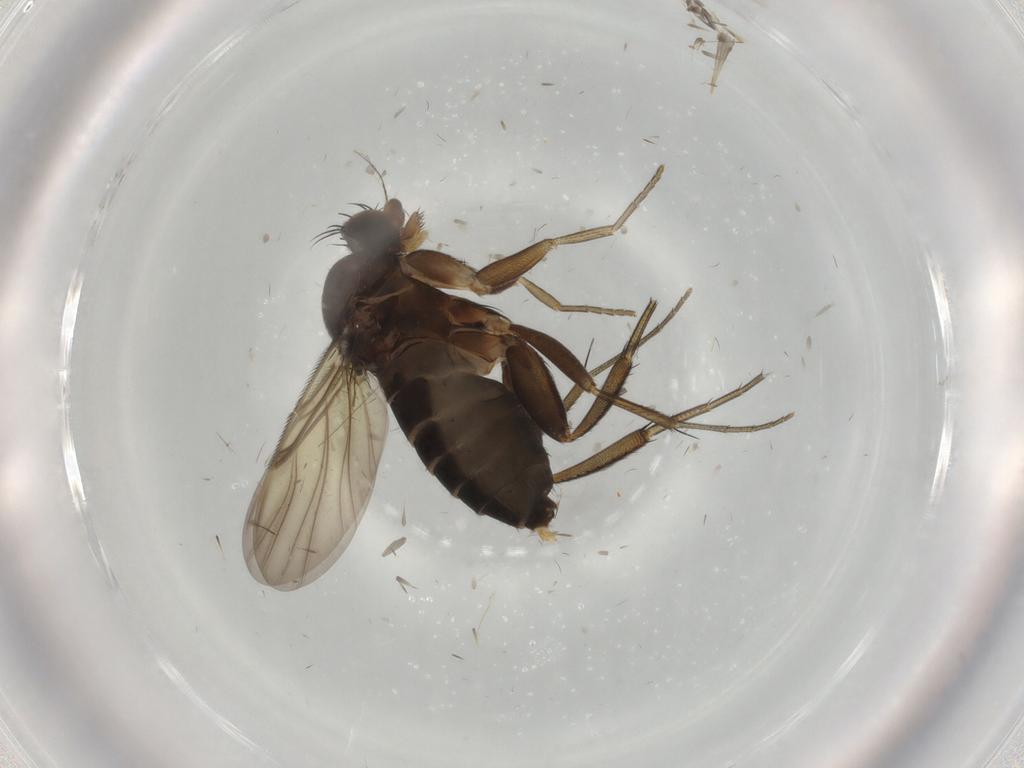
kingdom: Animalia
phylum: Arthropoda
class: Insecta
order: Diptera
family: Phoridae
